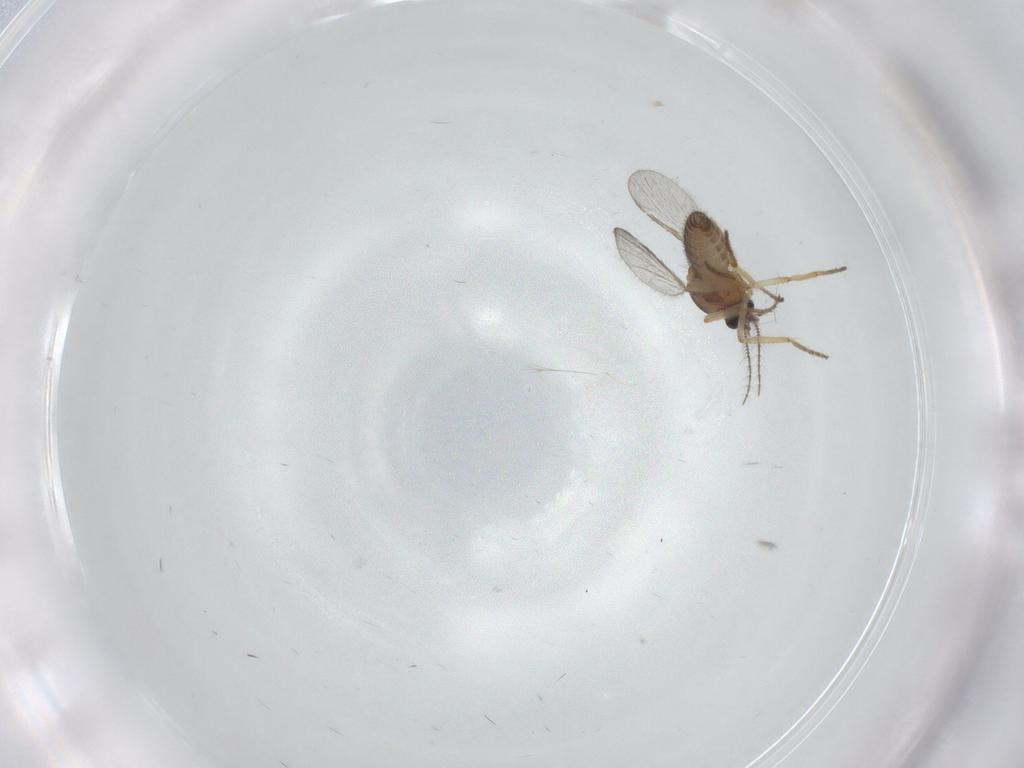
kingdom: Animalia
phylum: Arthropoda
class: Insecta
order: Diptera
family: Ceratopogonidae
